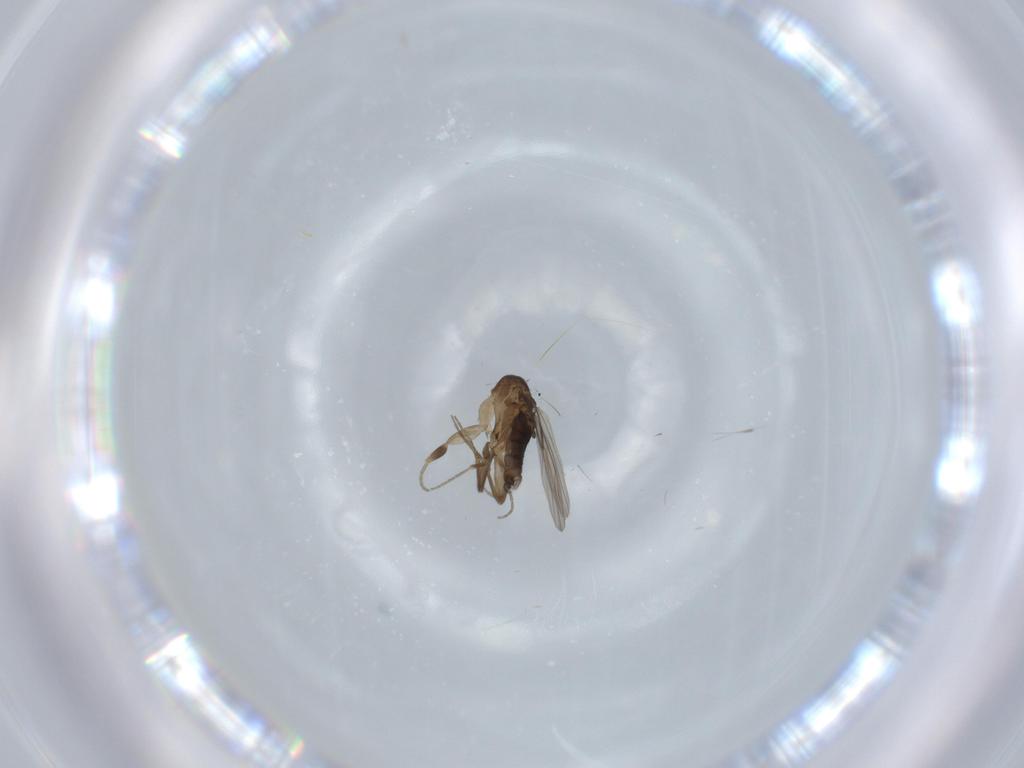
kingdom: Animalia
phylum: Arthropoda
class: Insecta
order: Diptera
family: Phoridae
